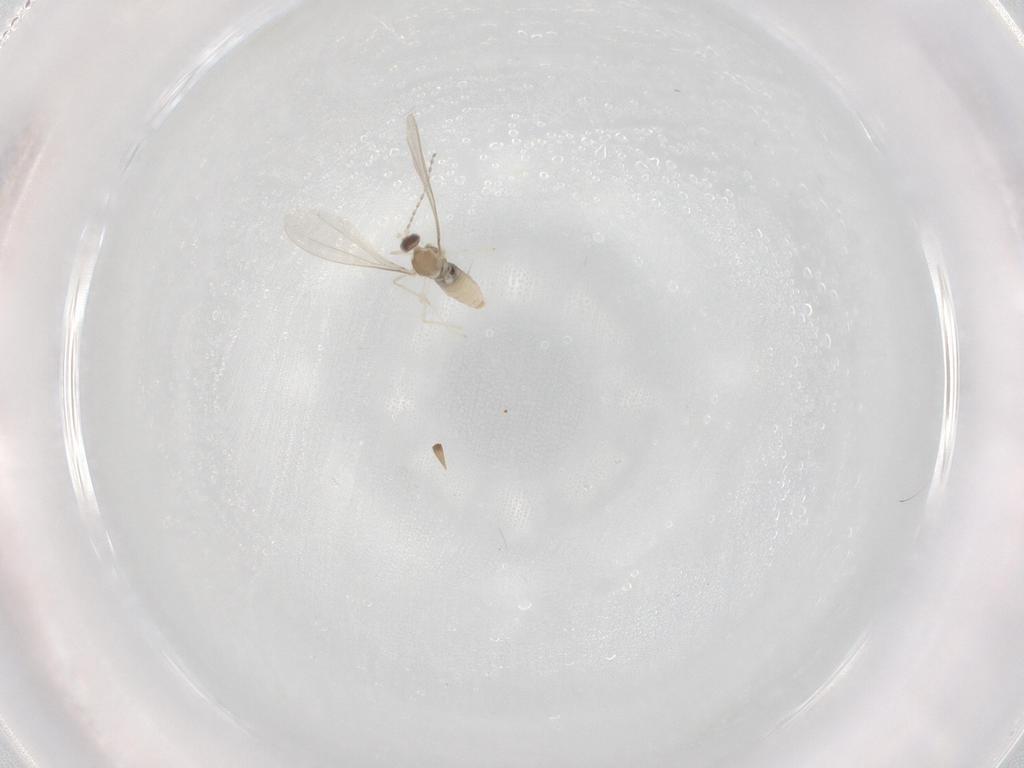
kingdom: Animalia
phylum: Arthropoda
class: Insecta
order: Diptera
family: Cecidomyiidae
